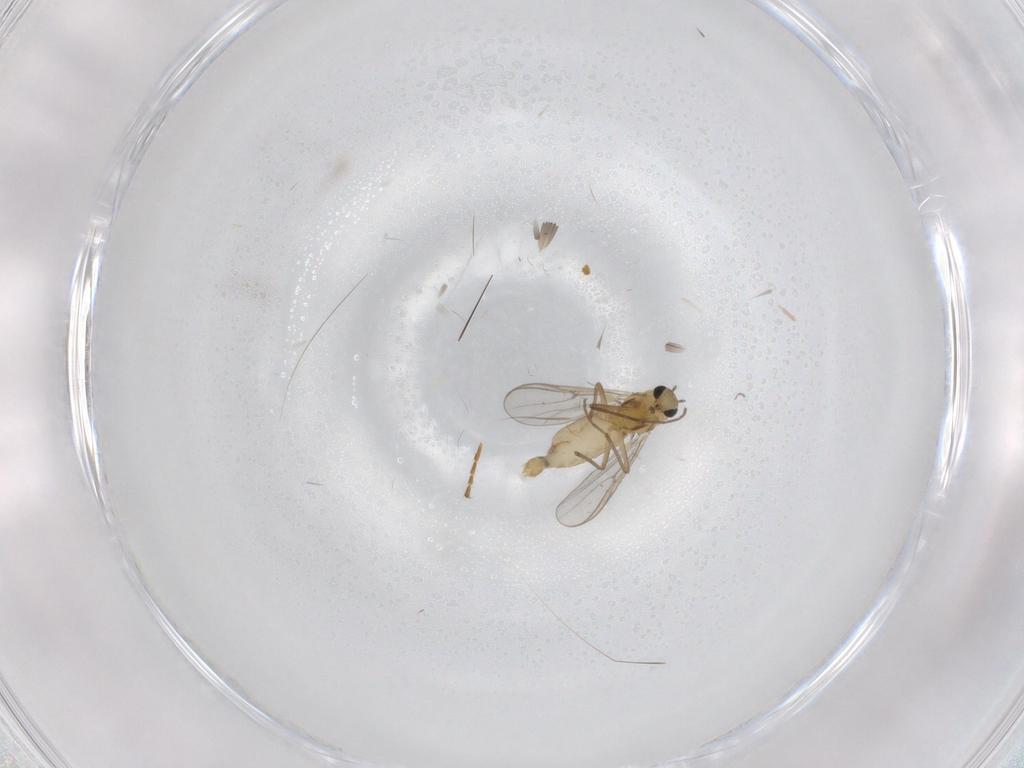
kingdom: Animalia
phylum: Arthropoda
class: Insecta
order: Diptera
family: Chironomidae
